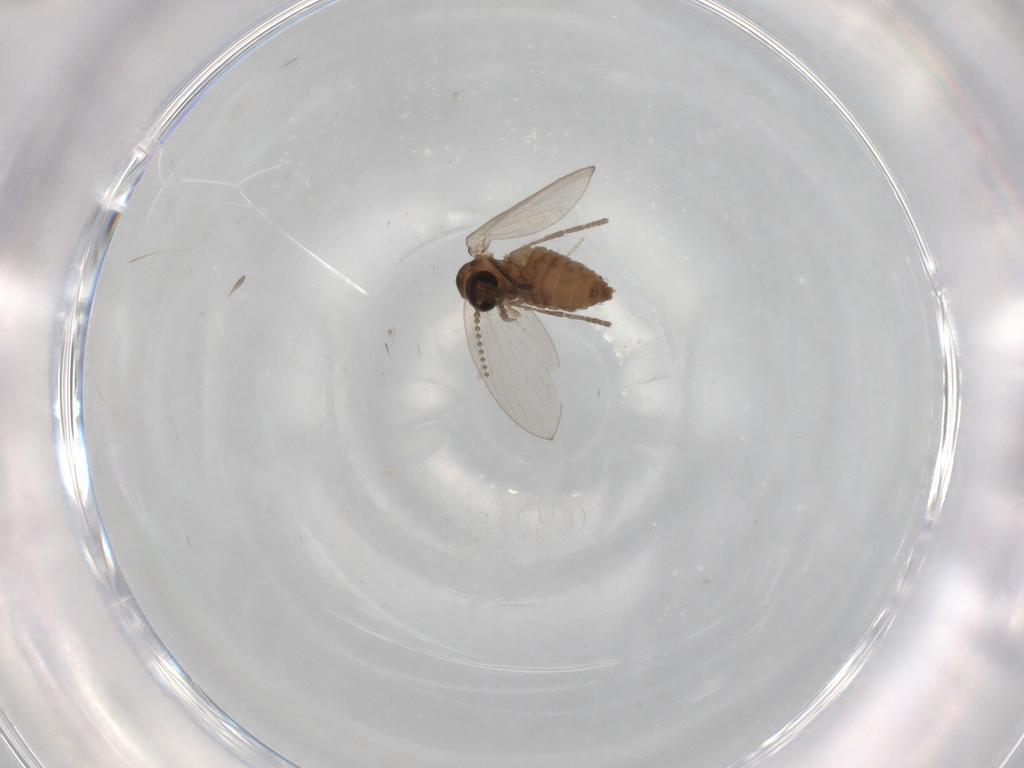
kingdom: Animalia
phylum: Arthropoda
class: Insecta
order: Diptera
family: Psychodidae
